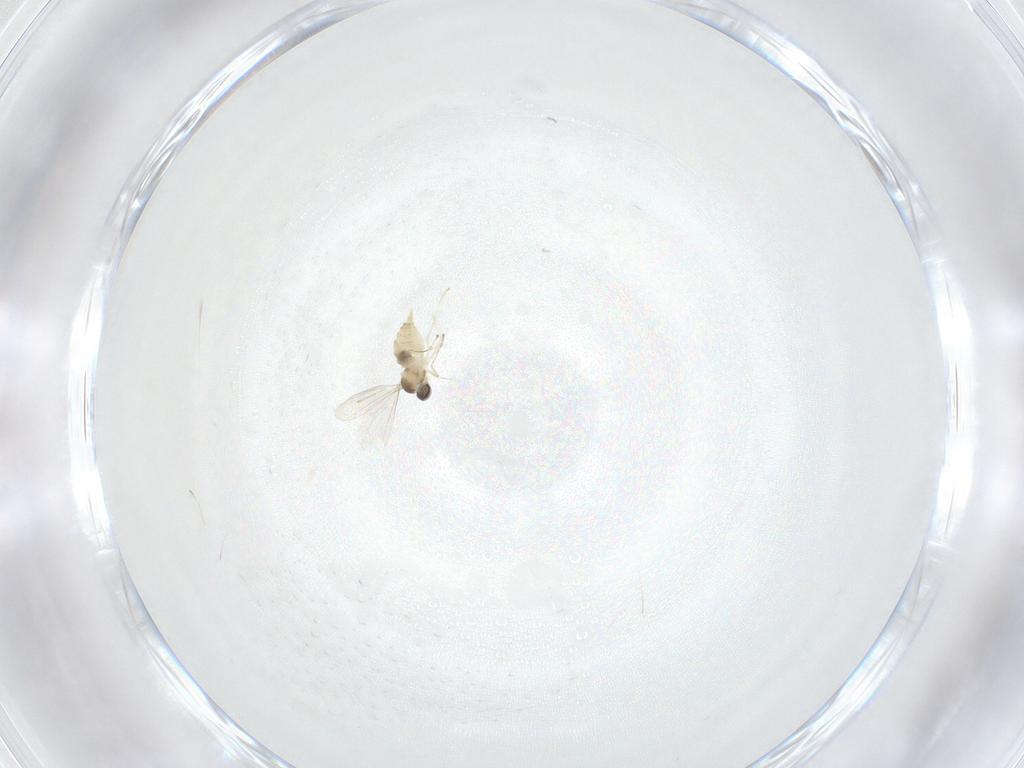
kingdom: Animalia
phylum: Arthropoda
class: Insecta
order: Diptera
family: Cecidomyiidae
